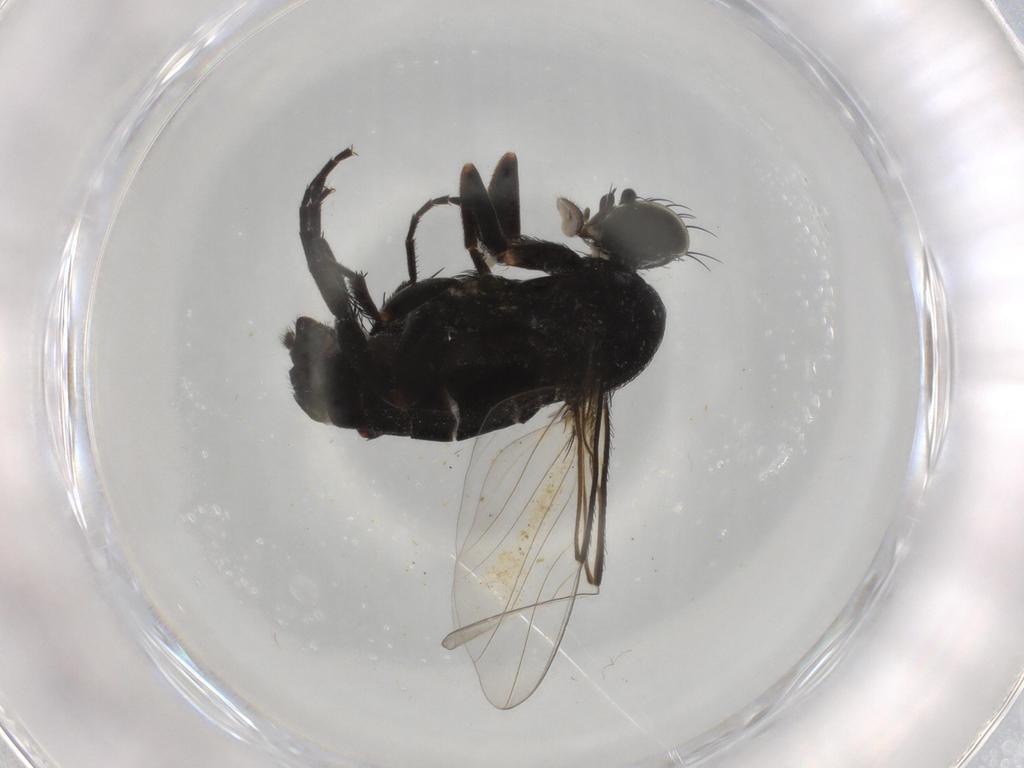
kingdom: Animalia
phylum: Arthropoda
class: Insecta
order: Diptera
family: Phoridae
